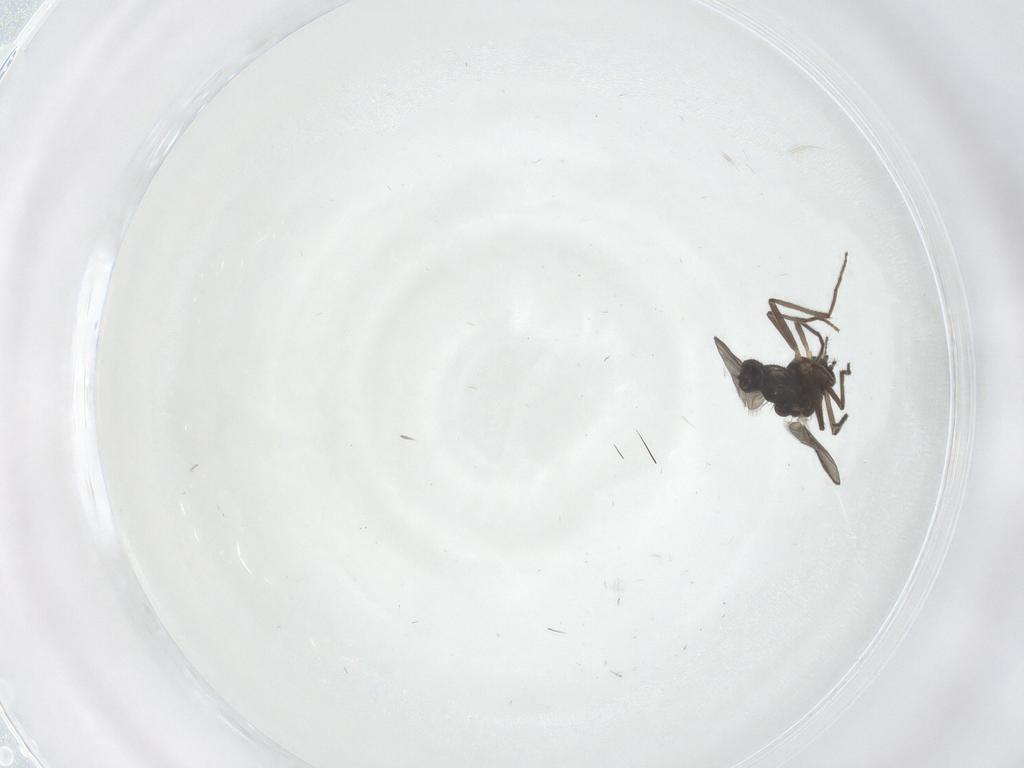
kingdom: Animalia
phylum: Arthropoda
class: Insecta
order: Diptera
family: Chironomidae
